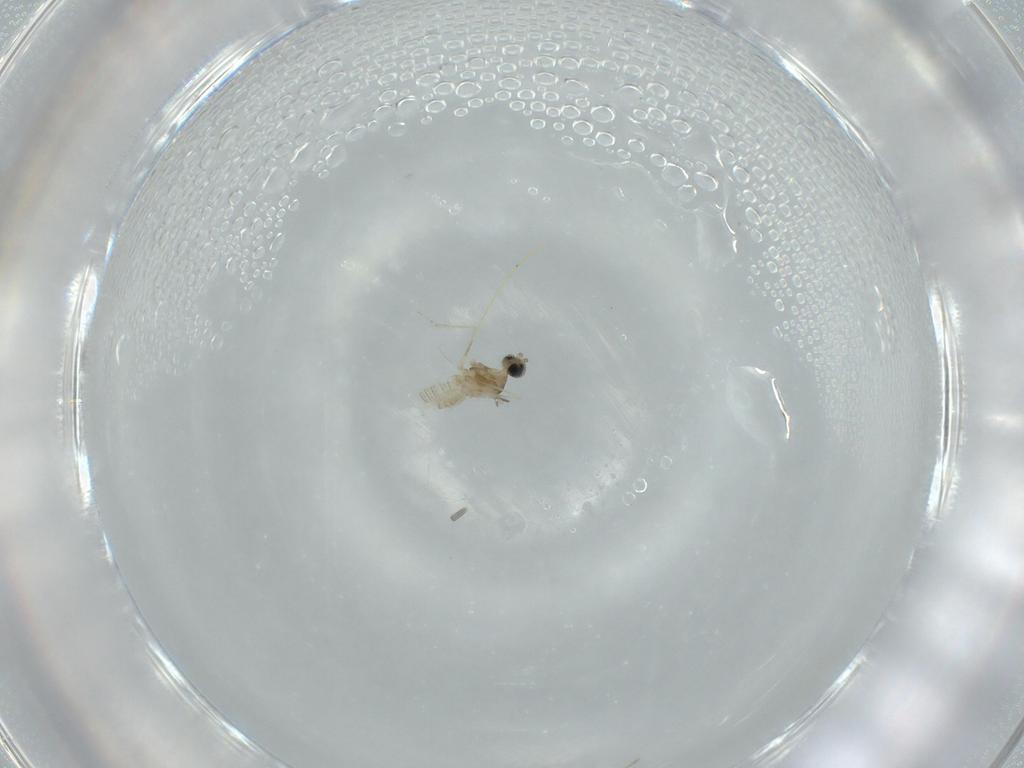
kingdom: Animalia
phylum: Arthropoda
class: Insecta
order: Diptera
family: Cecidomyiidae
